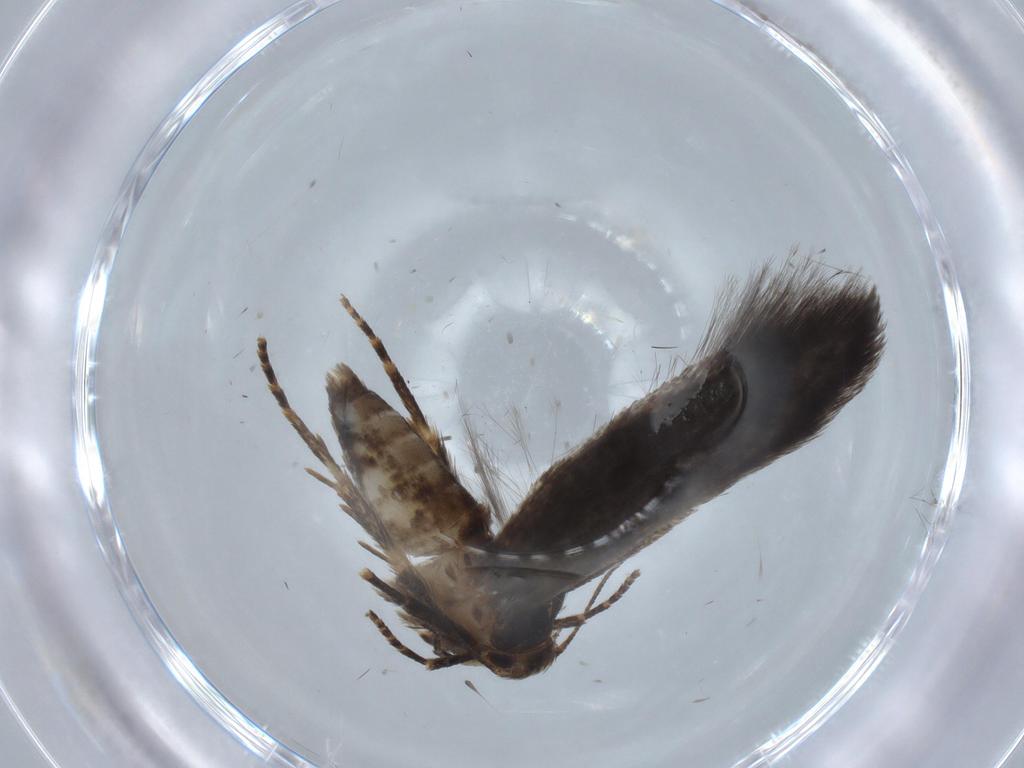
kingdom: Animalia
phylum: Arthropoda
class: Insecta
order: Lepidoptera
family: Cosmopterigidae
